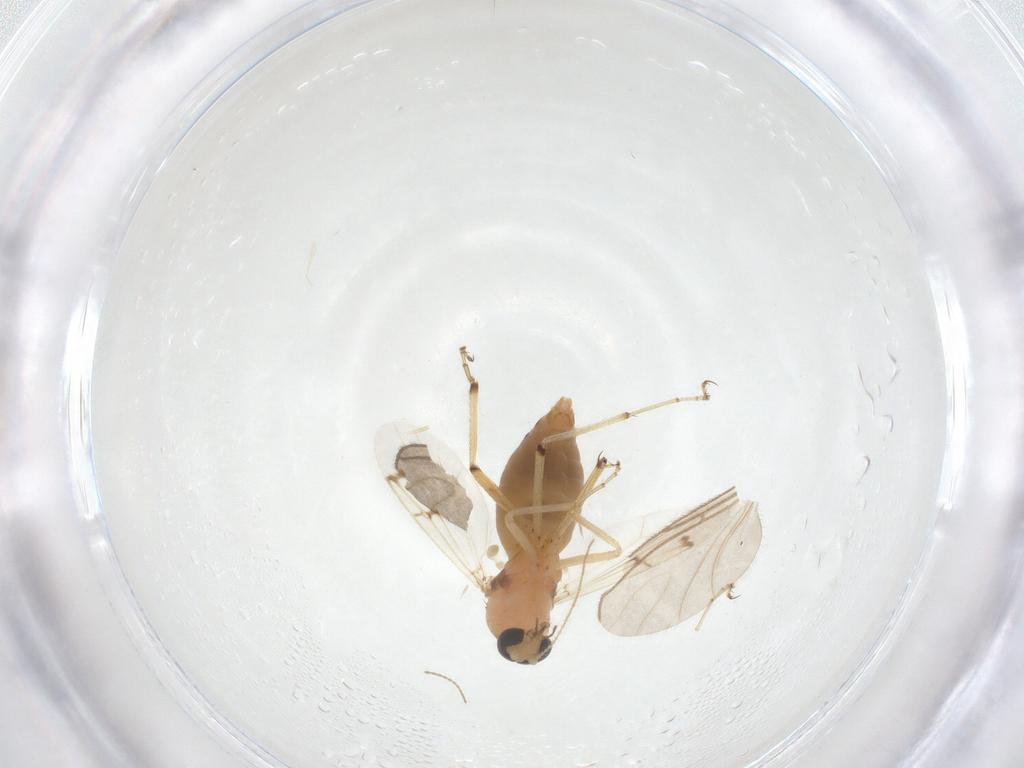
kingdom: Animalia
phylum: Arthropoda
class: Insecta
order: Diptera
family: Ceratopogonidae
